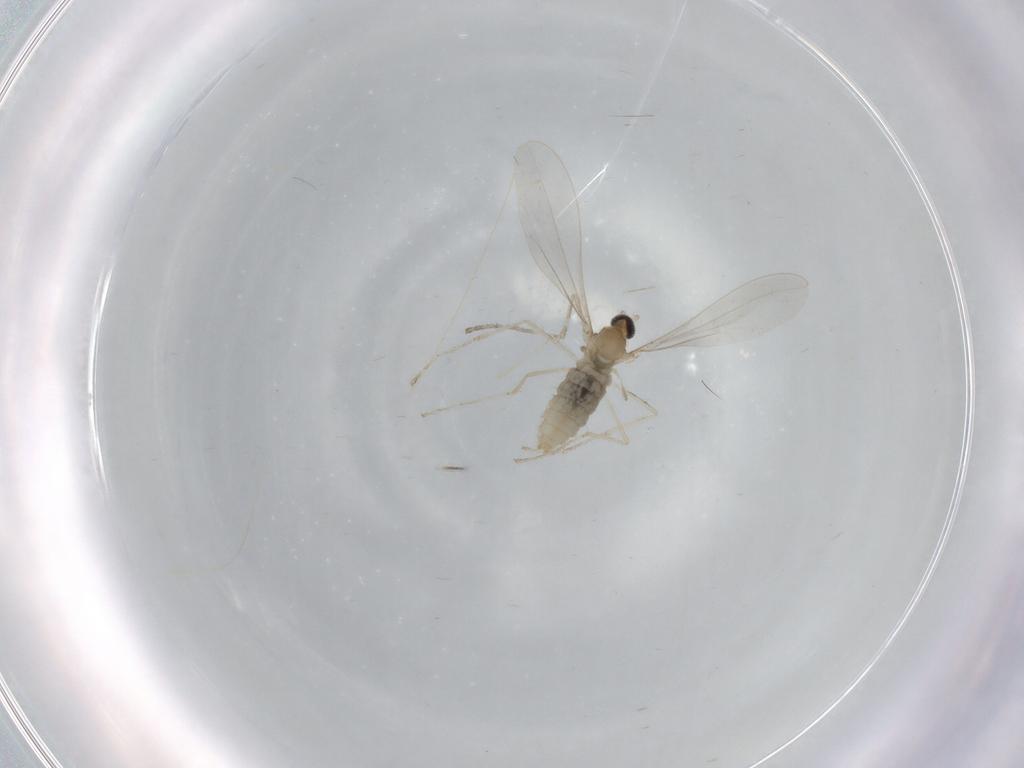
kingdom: Animalia
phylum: Arthropoda
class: Insecta
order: Diptera
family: Cecidomyiidae
